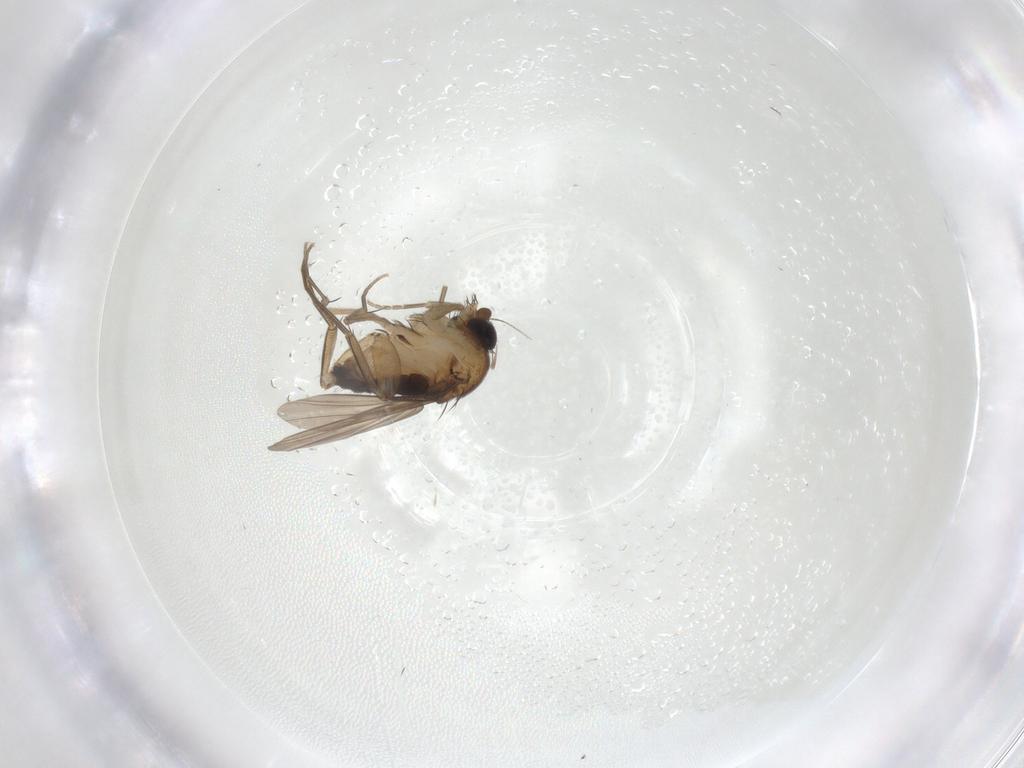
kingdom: Animalia
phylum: Arthropoda
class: Insecta
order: Diptera
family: Phoridae
